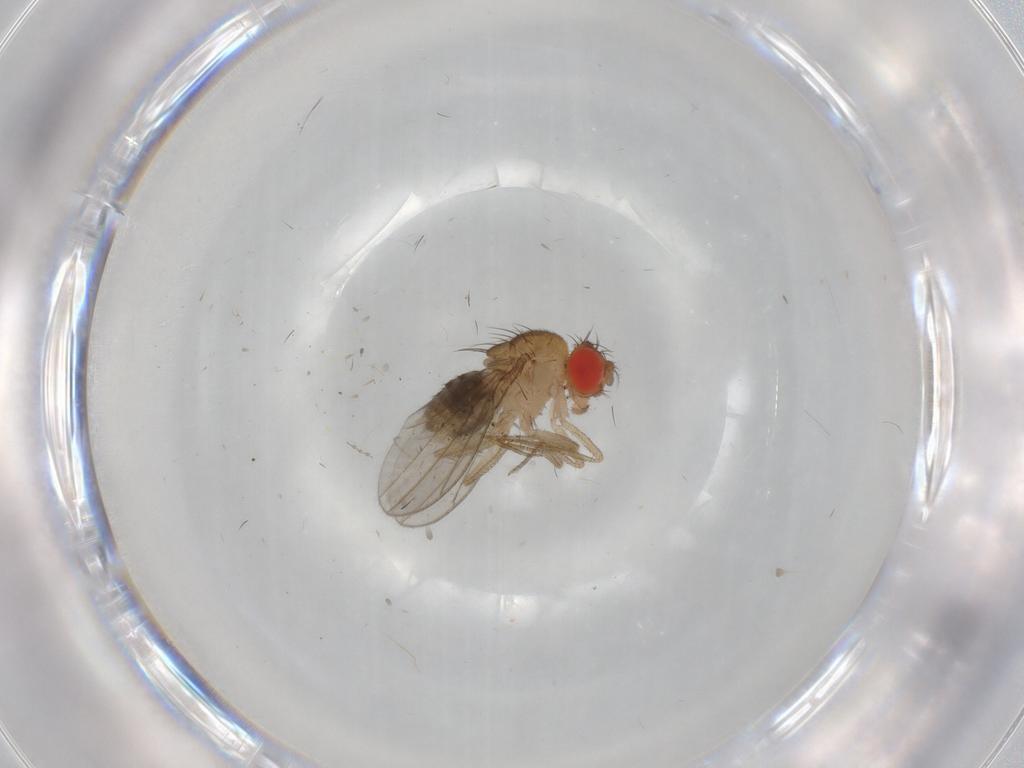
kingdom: Animalia
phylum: Arthropoda
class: Insecta
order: Diptera
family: Drosophilidae
